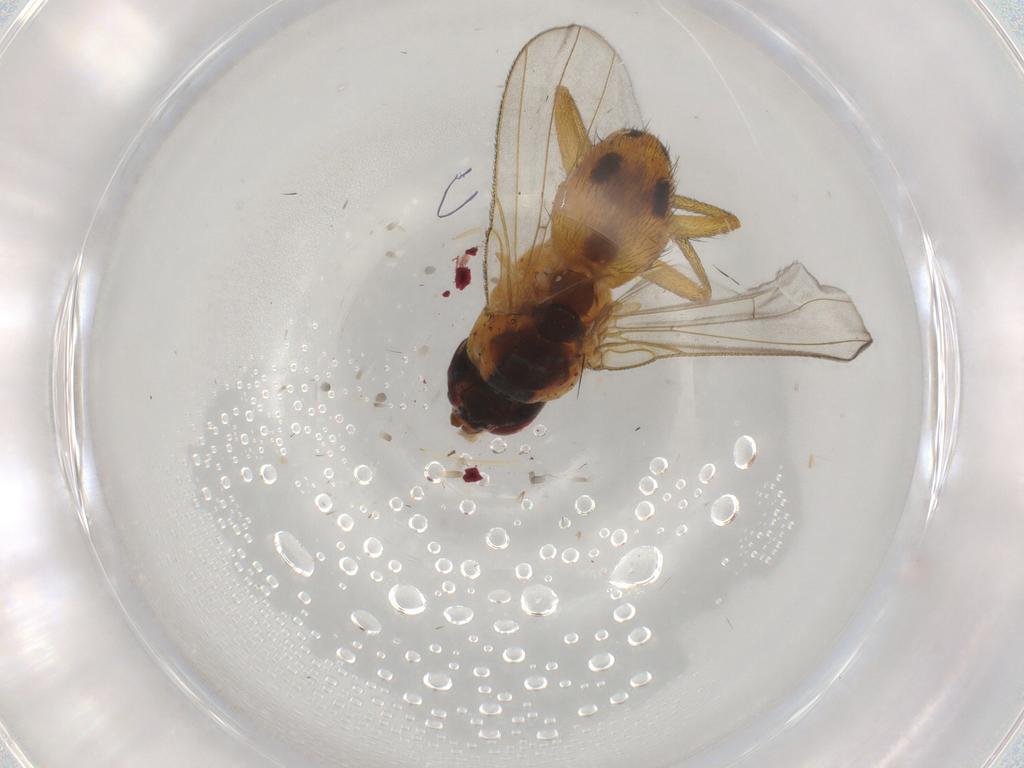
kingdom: Animalia
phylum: Arthropoda
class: Insecta
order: Diptera
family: Muscidae
